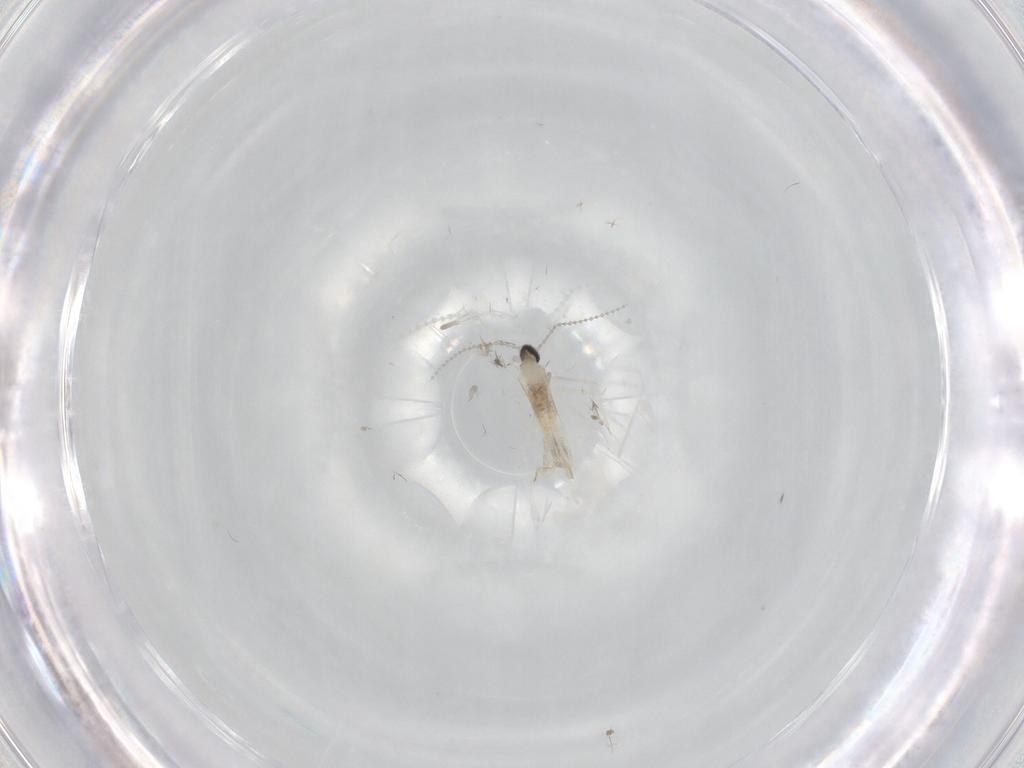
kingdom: Animalia
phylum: Arthropoda
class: Insecta
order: Diptera
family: Cecidomyiidae
